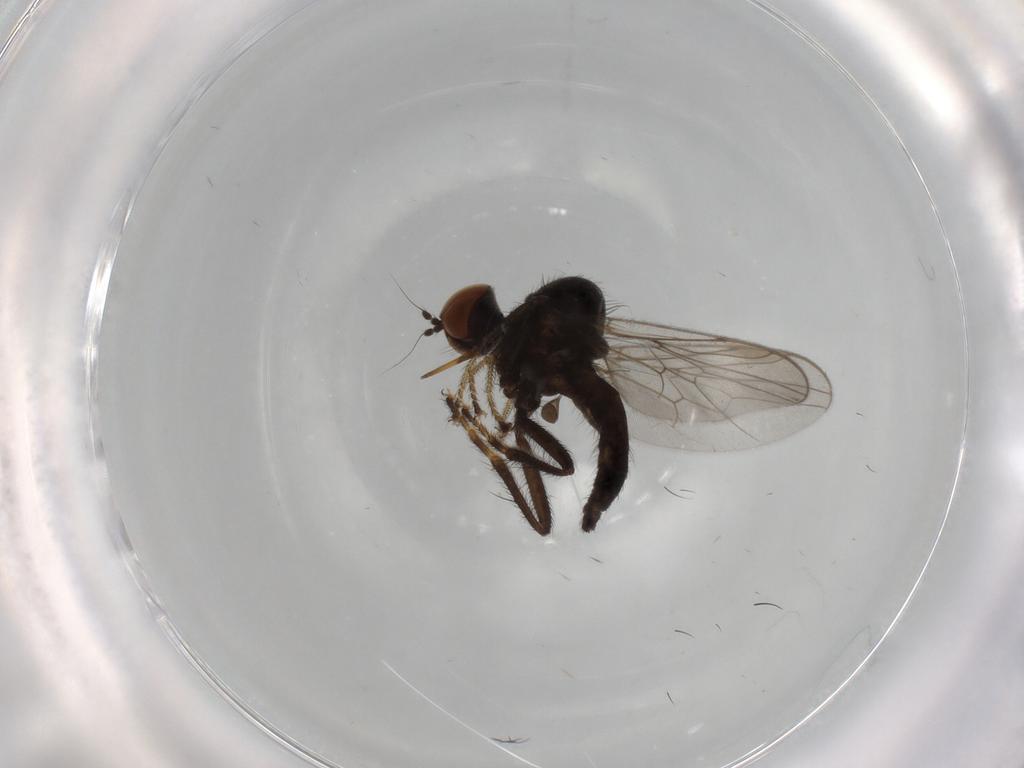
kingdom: Animalia
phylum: Arthropoda
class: Insecta
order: Diptera
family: Hybotidae
